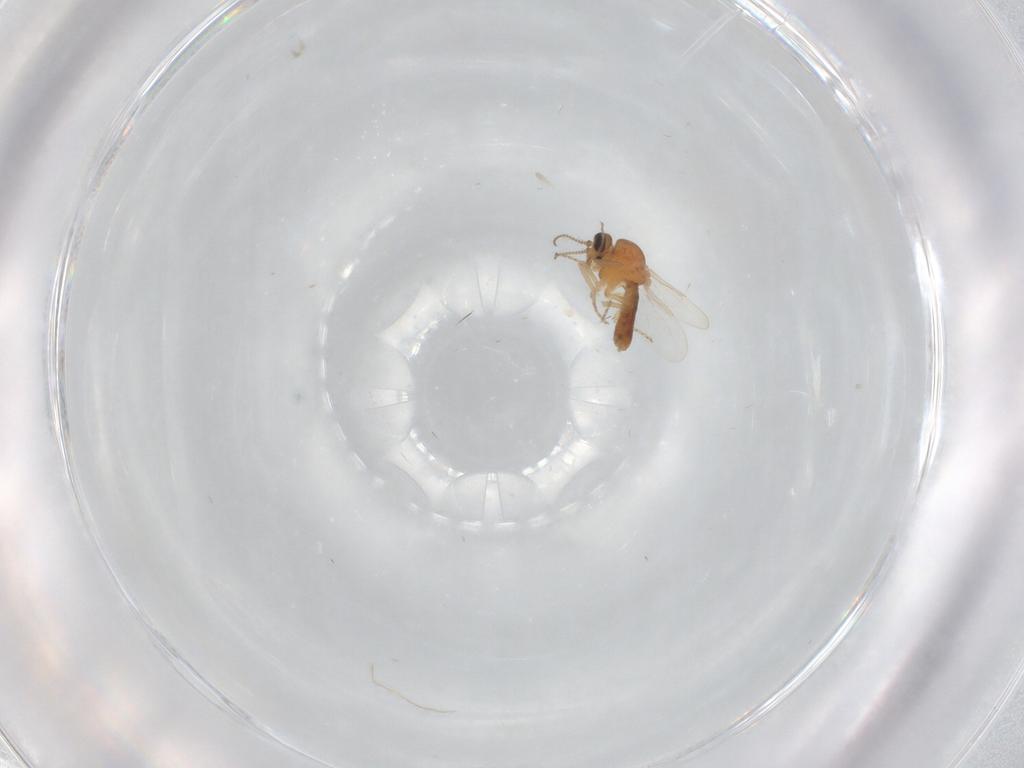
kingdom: Animalia
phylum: Arthropoda
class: Insecta
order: Diptera
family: Ceratopogonidae
